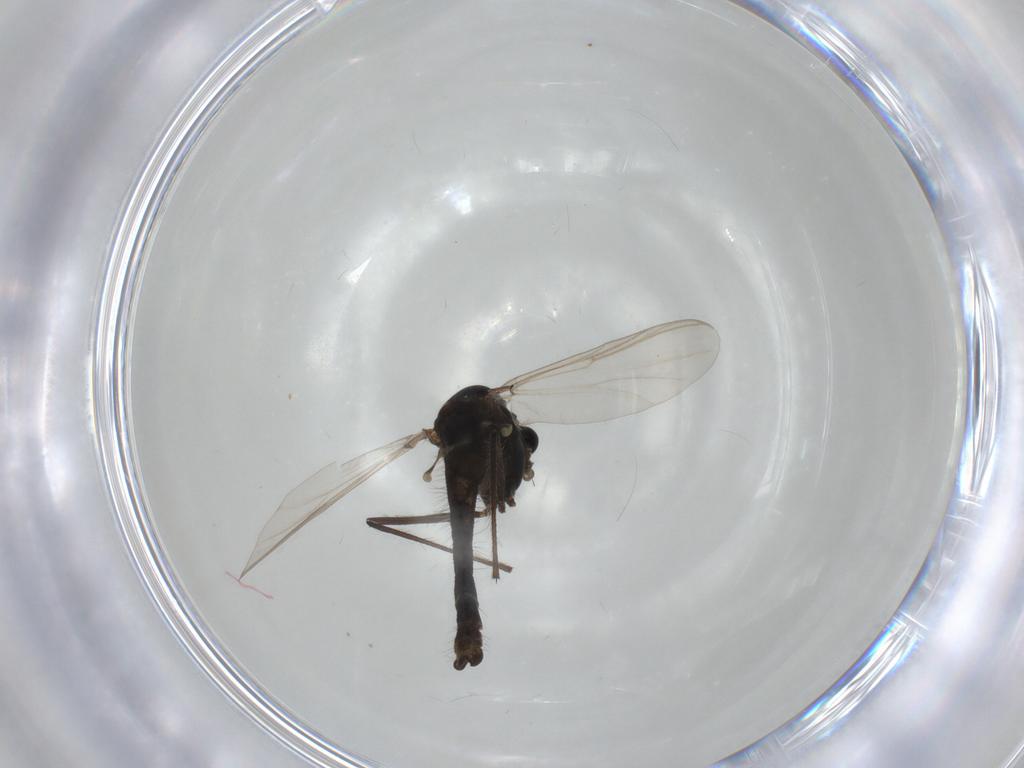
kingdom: Animalia
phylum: Arthropoda
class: Insecta
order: Diptera
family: Chironomidae
